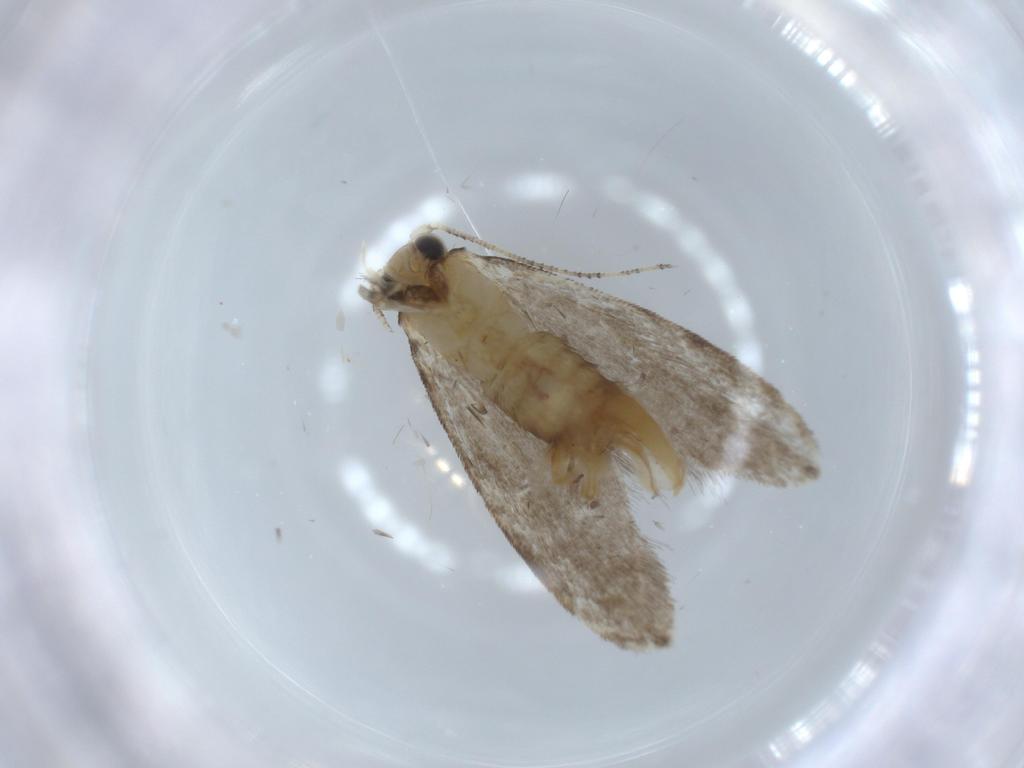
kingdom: Animalia
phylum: Arthropoda
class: Insecta
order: Lepidoptera
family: Tineidae
